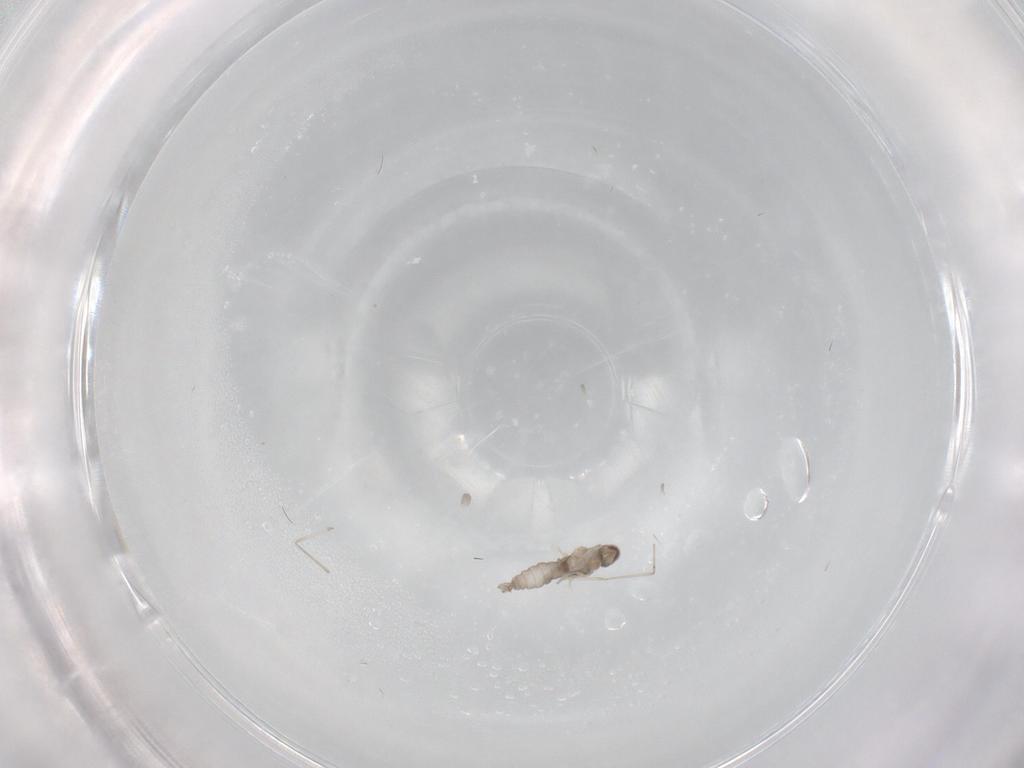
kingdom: Animalia
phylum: Arthropoda
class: Insecta
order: Diptera
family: Cecidomyiidae
